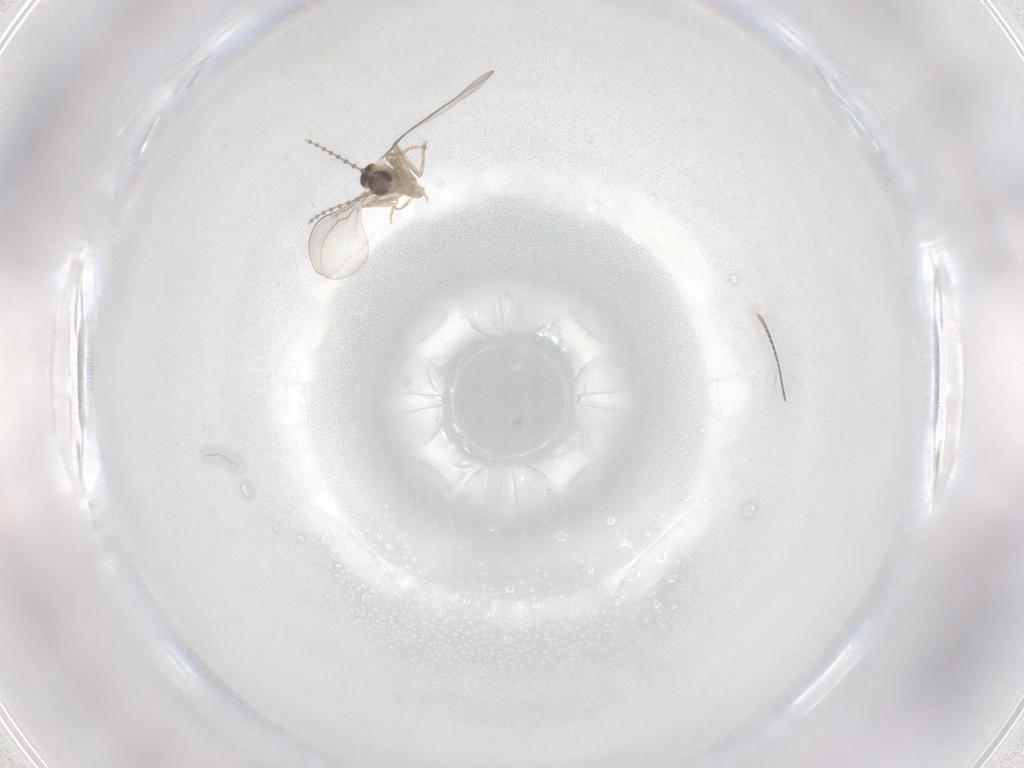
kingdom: Animalia
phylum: Arthropoda
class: Insecta
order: Diptera
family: Cecidomyiidae
